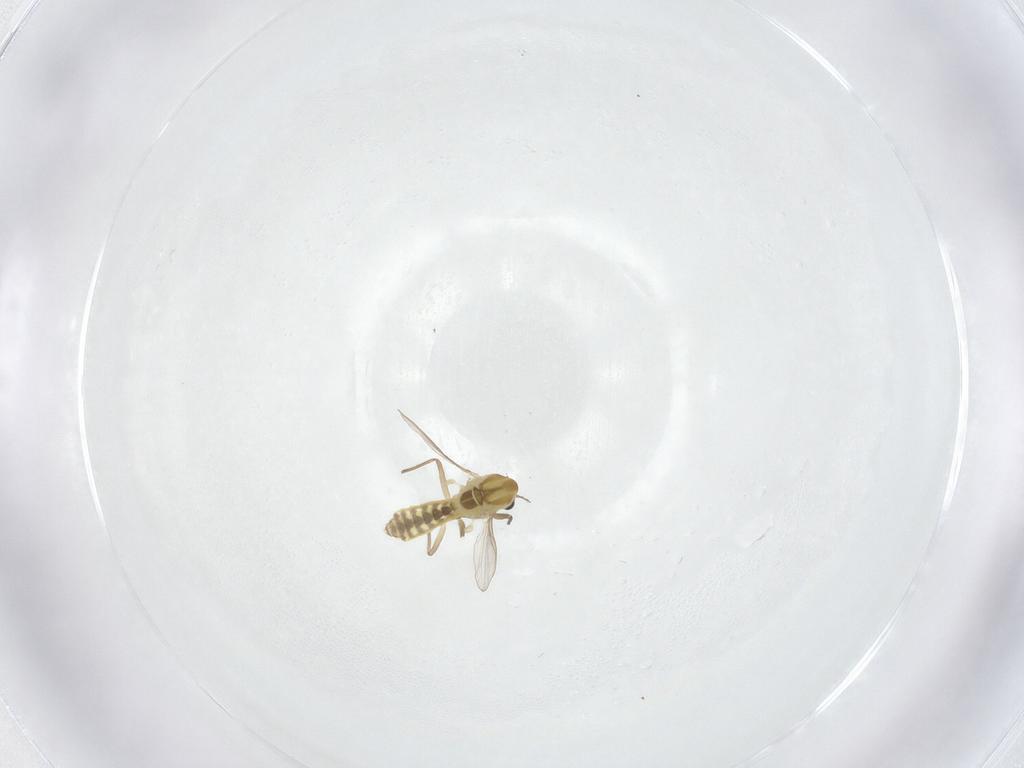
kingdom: Animalia
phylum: Arthropoda
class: Insecta
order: Diptera
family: Chironomidae
